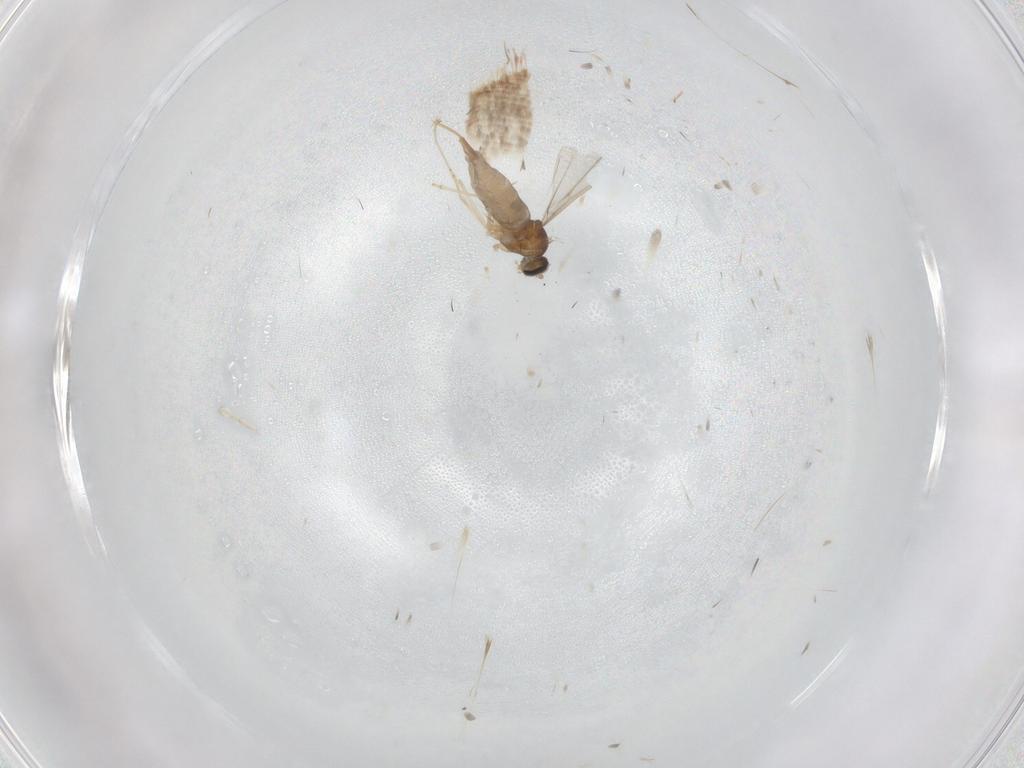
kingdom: Animalia
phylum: Arthropoda
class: Insecta
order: Diptera
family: Cecidomyiidae
